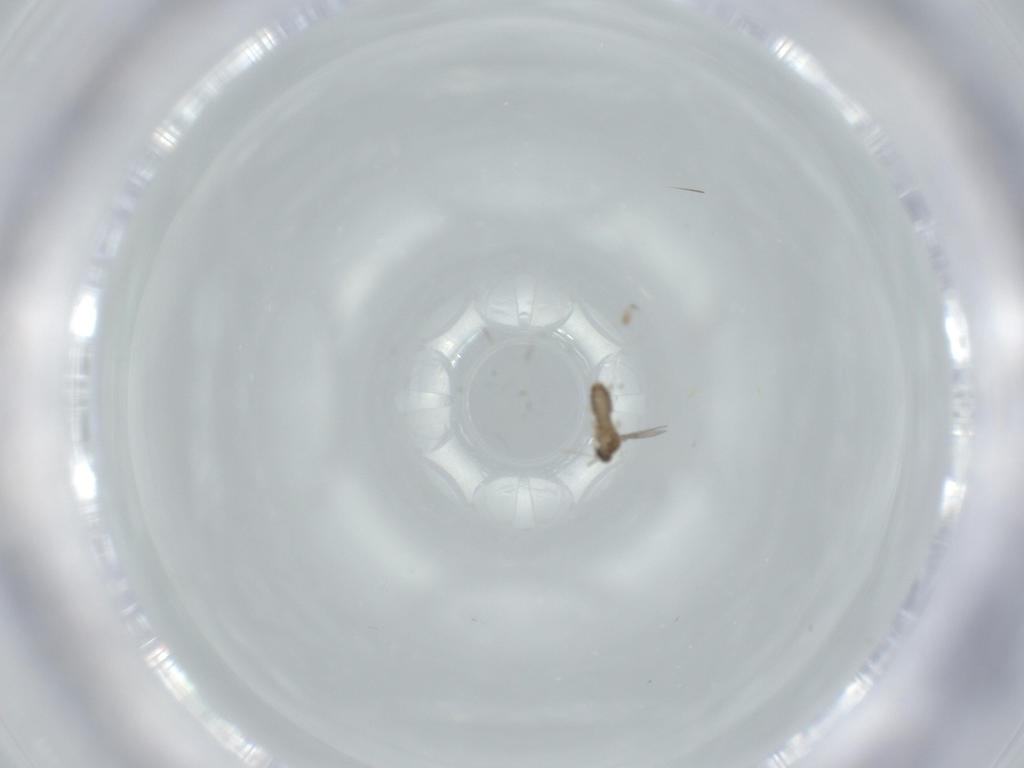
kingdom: Animalia
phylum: Arthropoda
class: Insecta
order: Diptera
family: Cecidomyiidae
